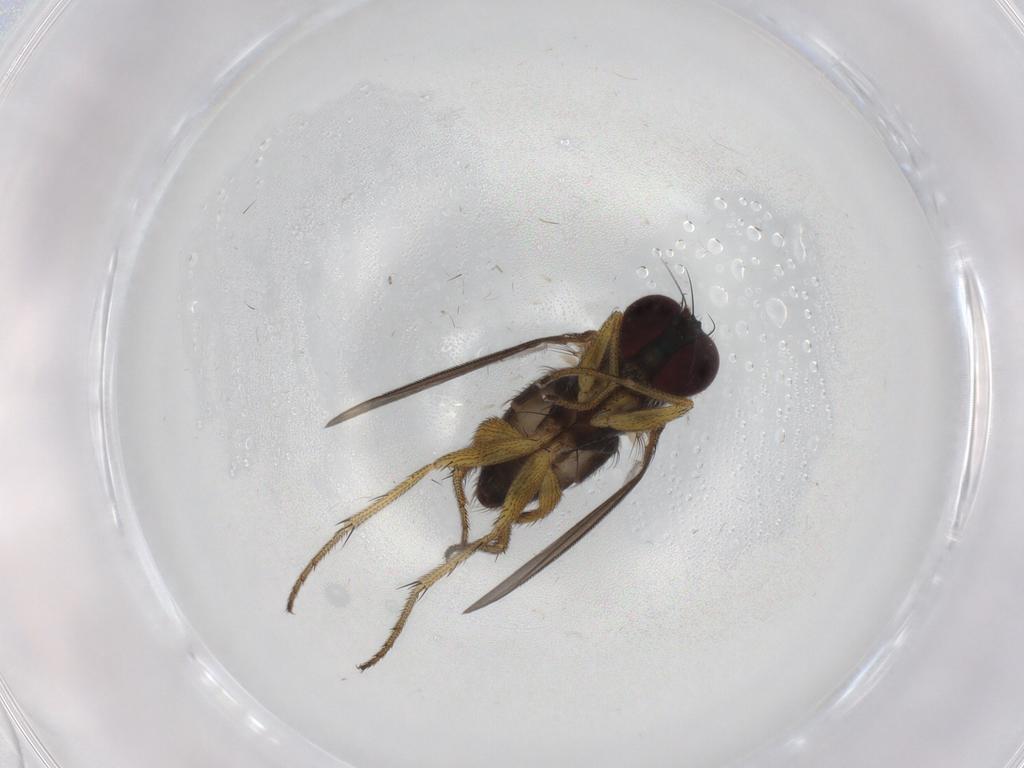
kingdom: Animalia
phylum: Arthropoda
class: Insecta
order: Diptera
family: Dolichopodidae
